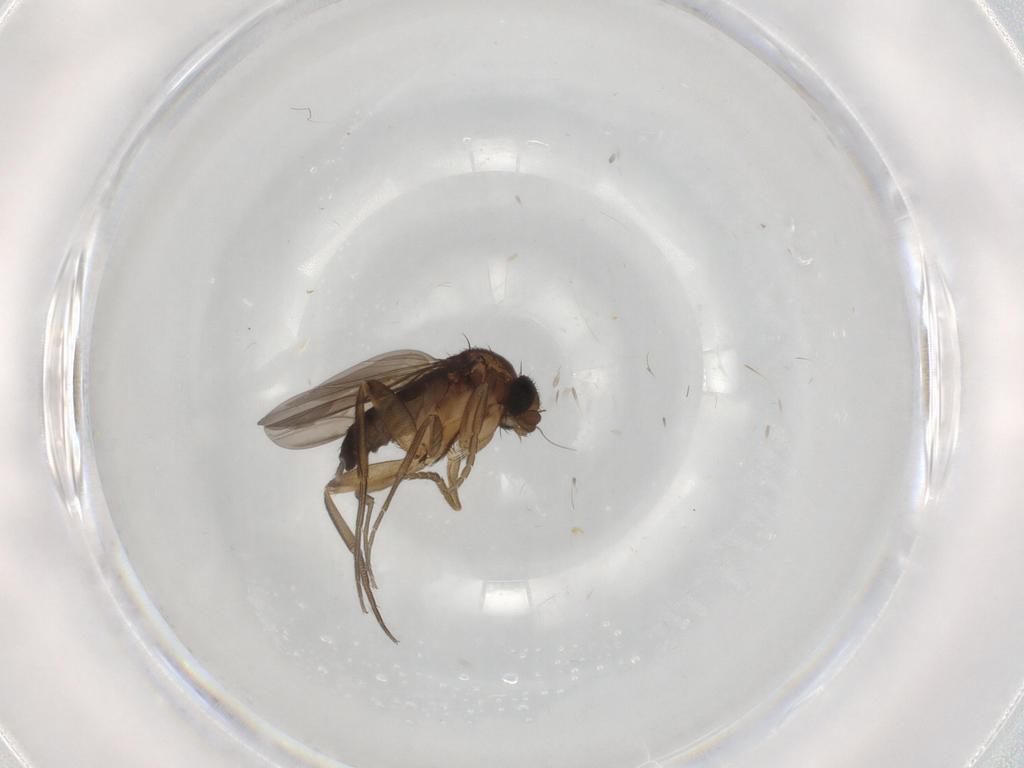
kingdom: Animalia
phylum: Arthropoda
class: Insecta
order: Diptera
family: Phoridae
